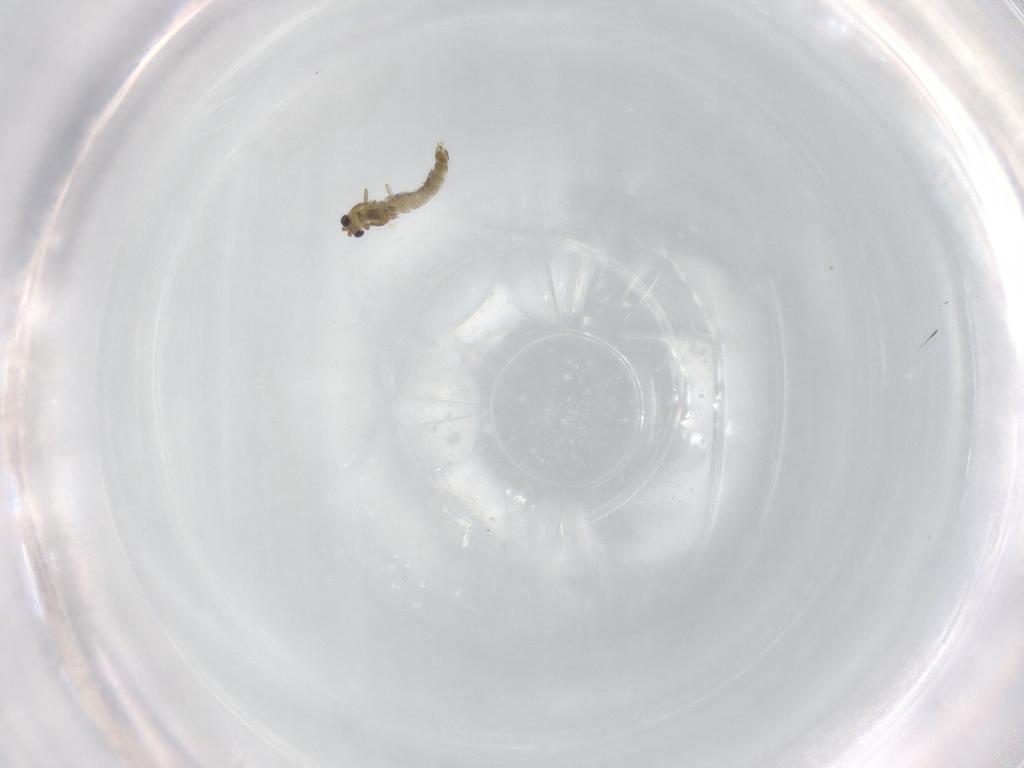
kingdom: Animalia
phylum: Arthropoda
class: Insecta
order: Diptera
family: Chironomidae
